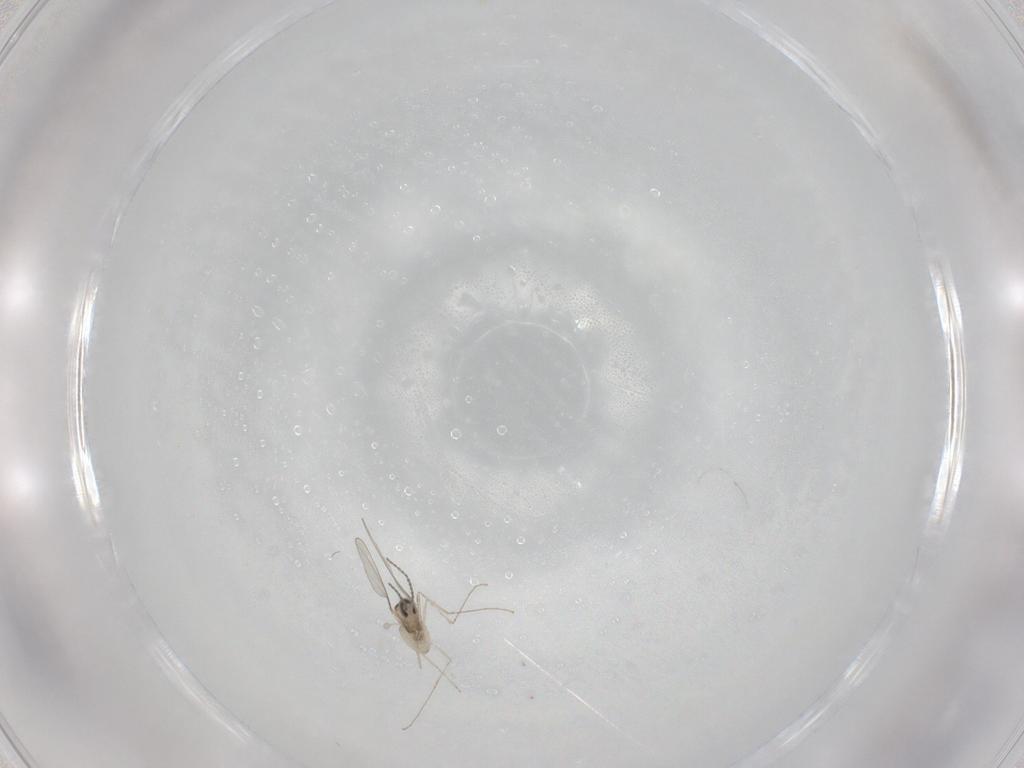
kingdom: Animalia
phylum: Arthropoda
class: Insecta
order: Diptera
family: Cecidomyiidae
